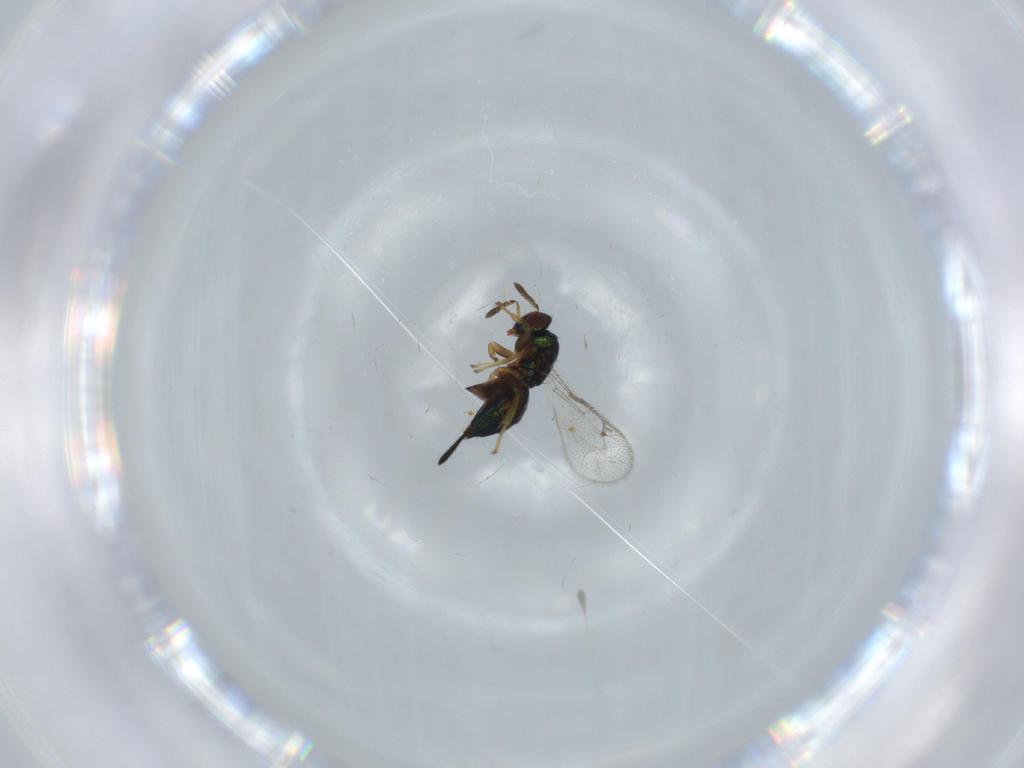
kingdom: Animalia
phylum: Arthropoda
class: Insecta
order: Hymenoptera
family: Torymidae
